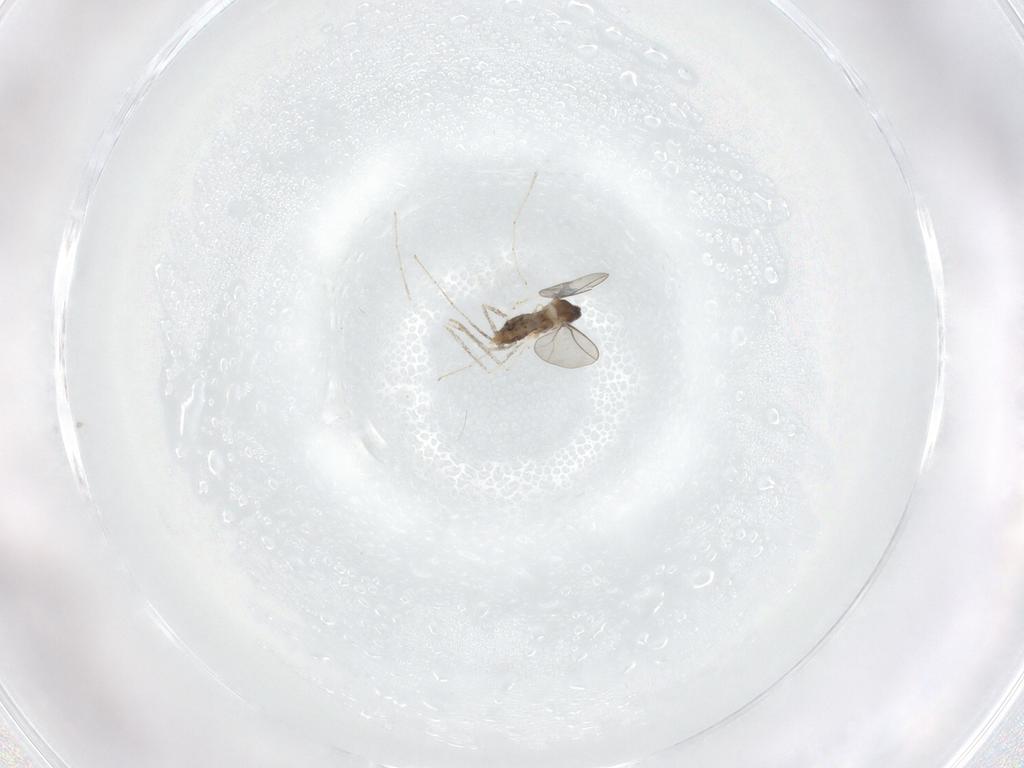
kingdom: Animalia
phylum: Arthropoda
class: Insecta
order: Diptera
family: Cecidomyiidae
